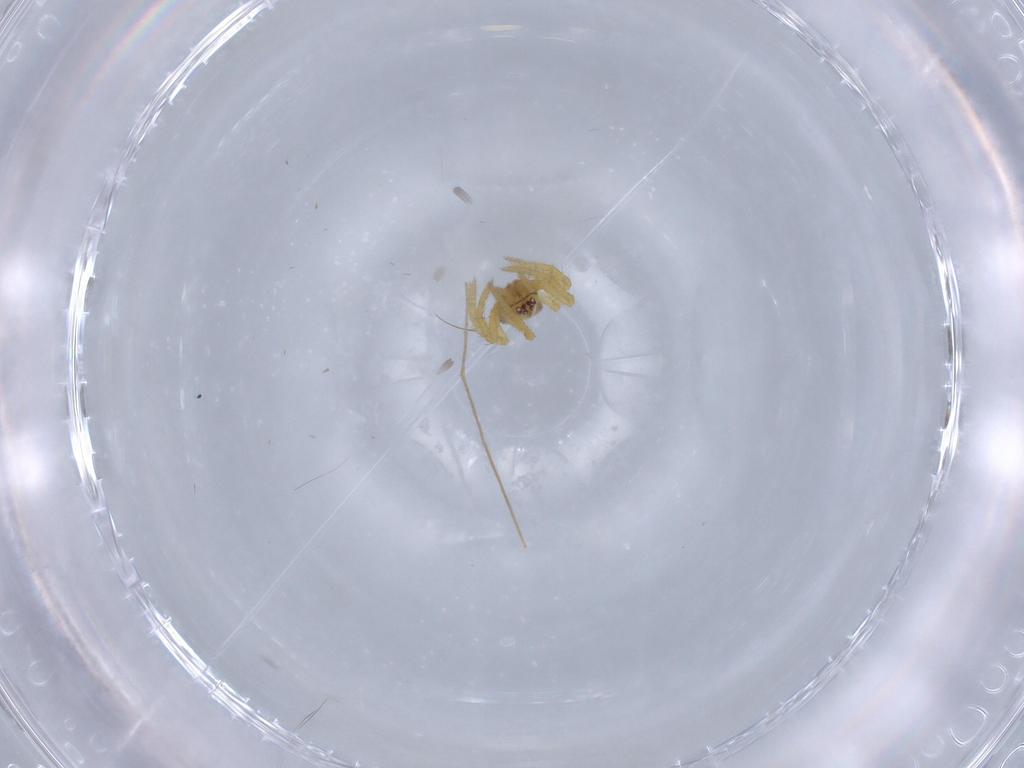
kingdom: Animalia
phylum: Arthropoda
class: Arachnida
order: Araneae
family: Theridiidae
